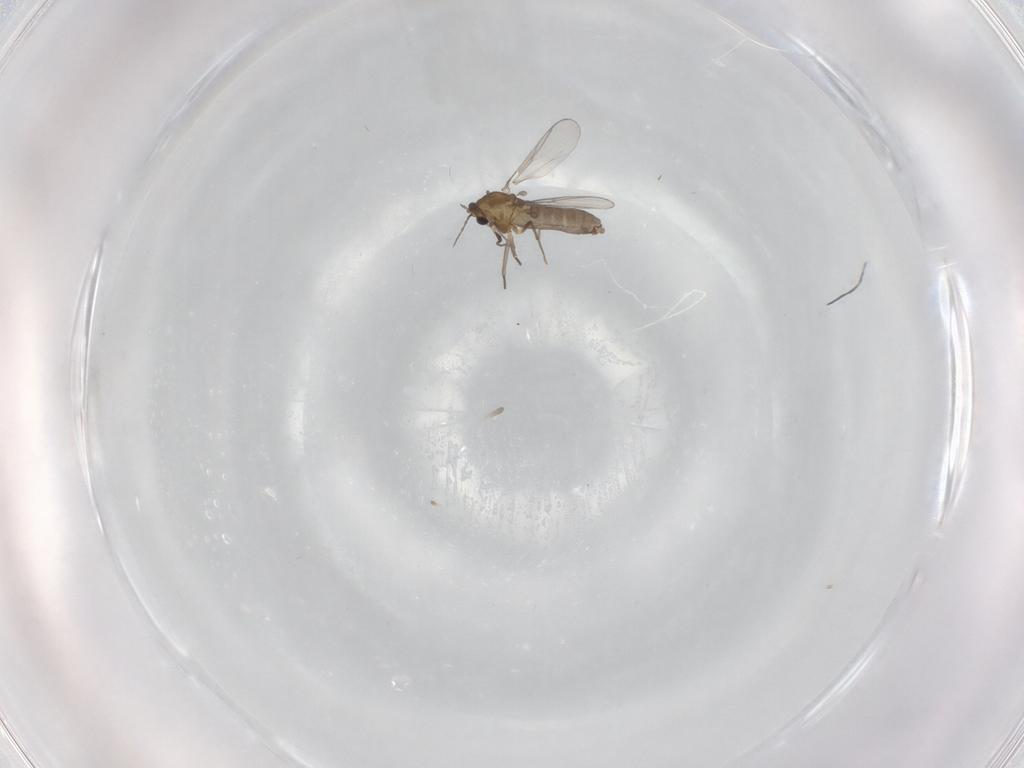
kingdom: Animalia
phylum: Arthropoda
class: Insecta
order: Diptera
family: Chironomidae
